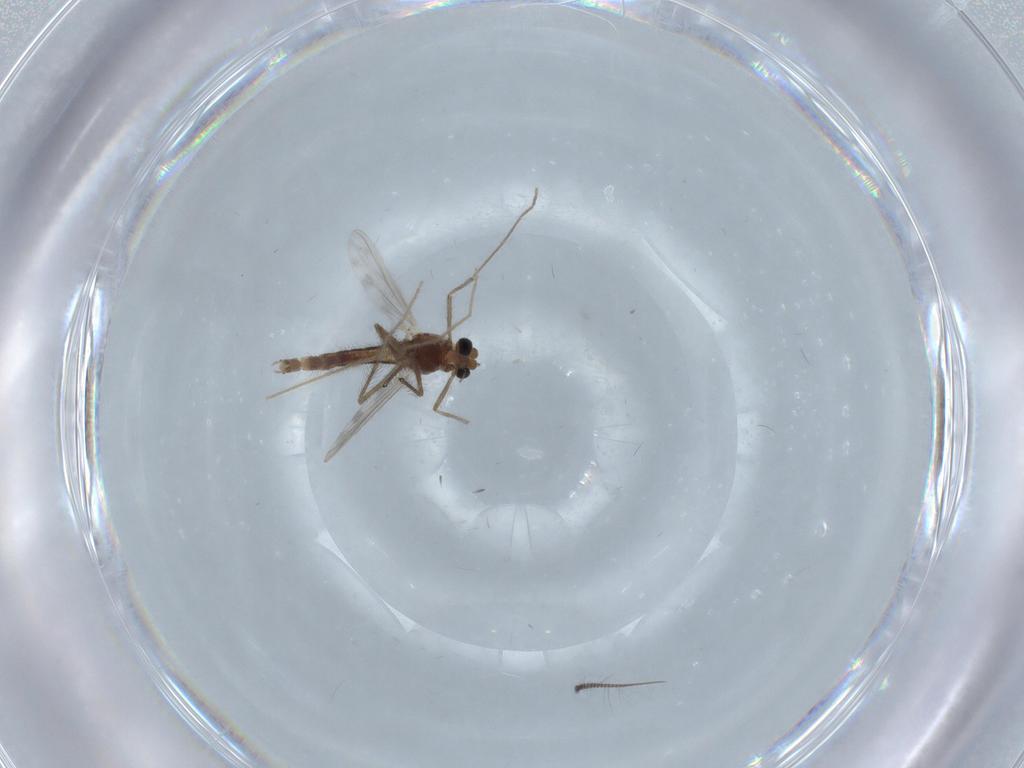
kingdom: Animalia
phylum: Arthropoda
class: Insecta
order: Diptera
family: Chironomidae
